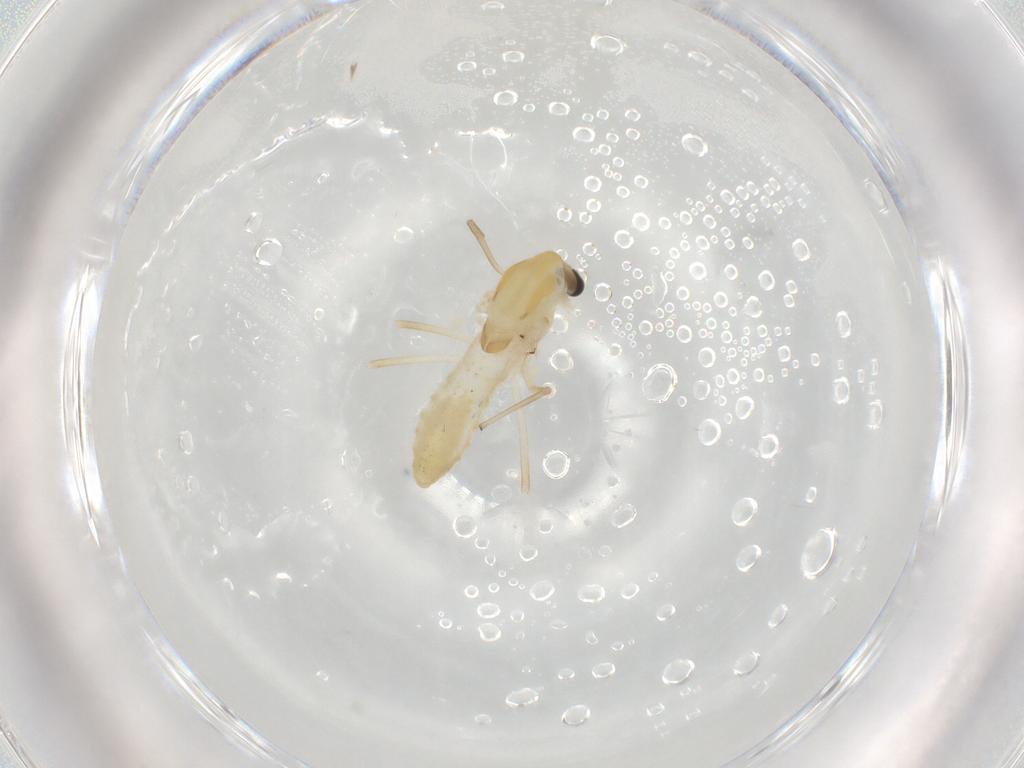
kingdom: Animalia
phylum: Arthropoda
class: Insecta
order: Diptera
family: Chironomidae
